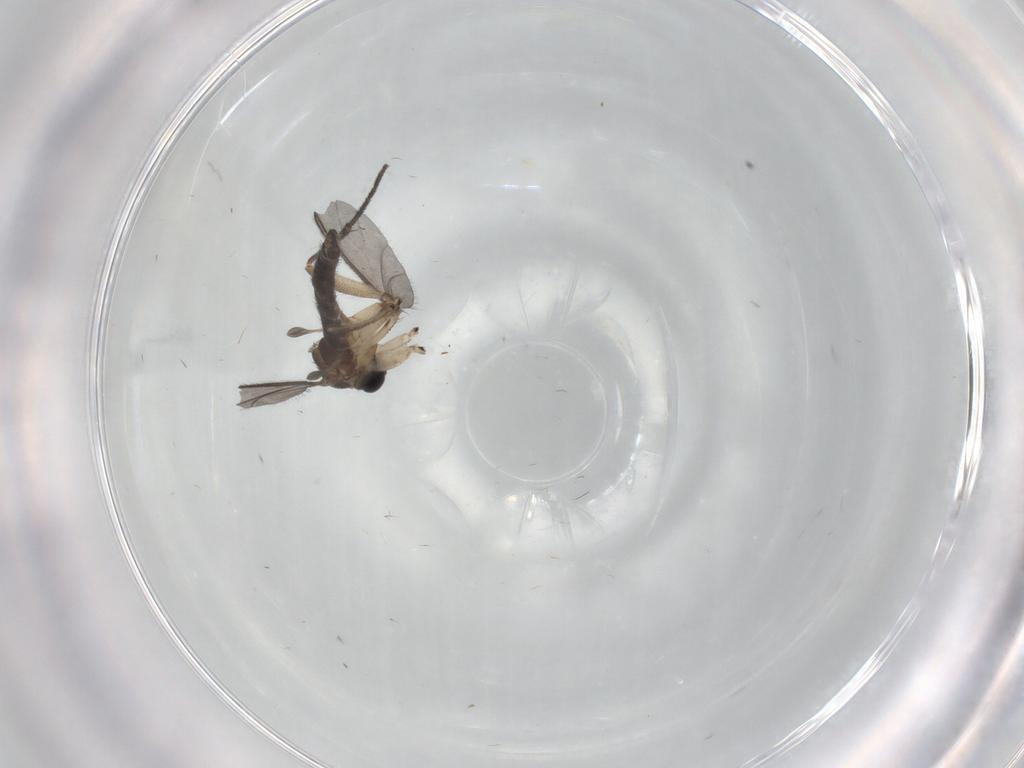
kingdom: Animalia
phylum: Arthropoda
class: Insecta
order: Diptera
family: Sciaridae
